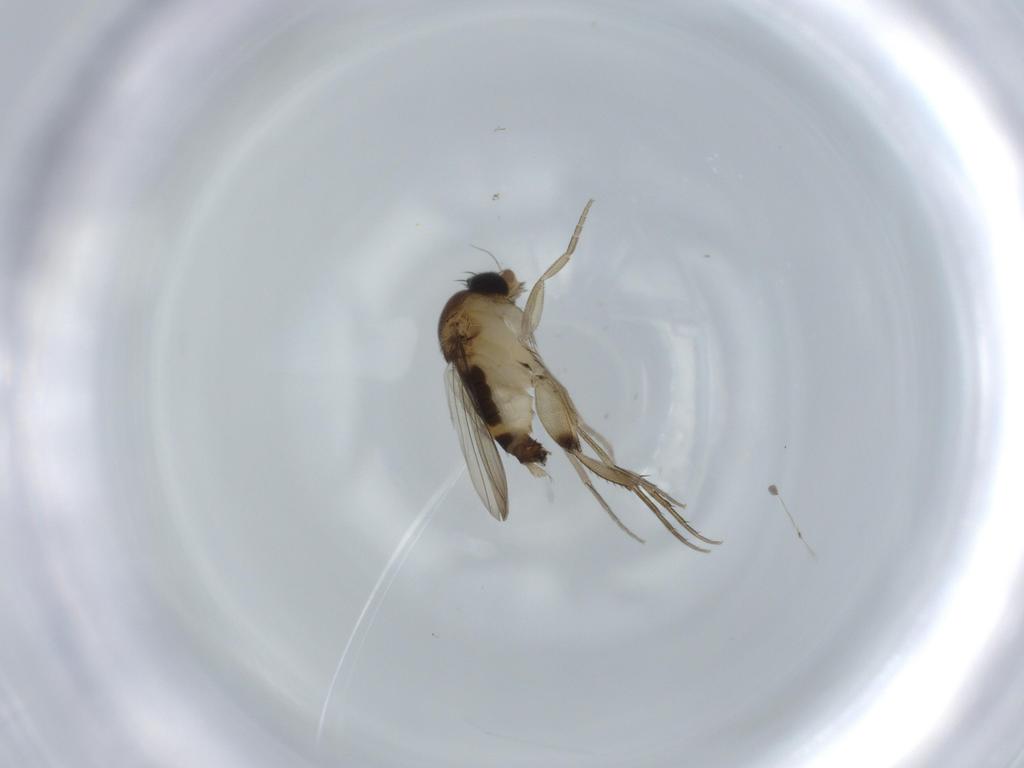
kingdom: Animalia
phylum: Arthropoda
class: Insecta
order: Diptera
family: Phoridae
